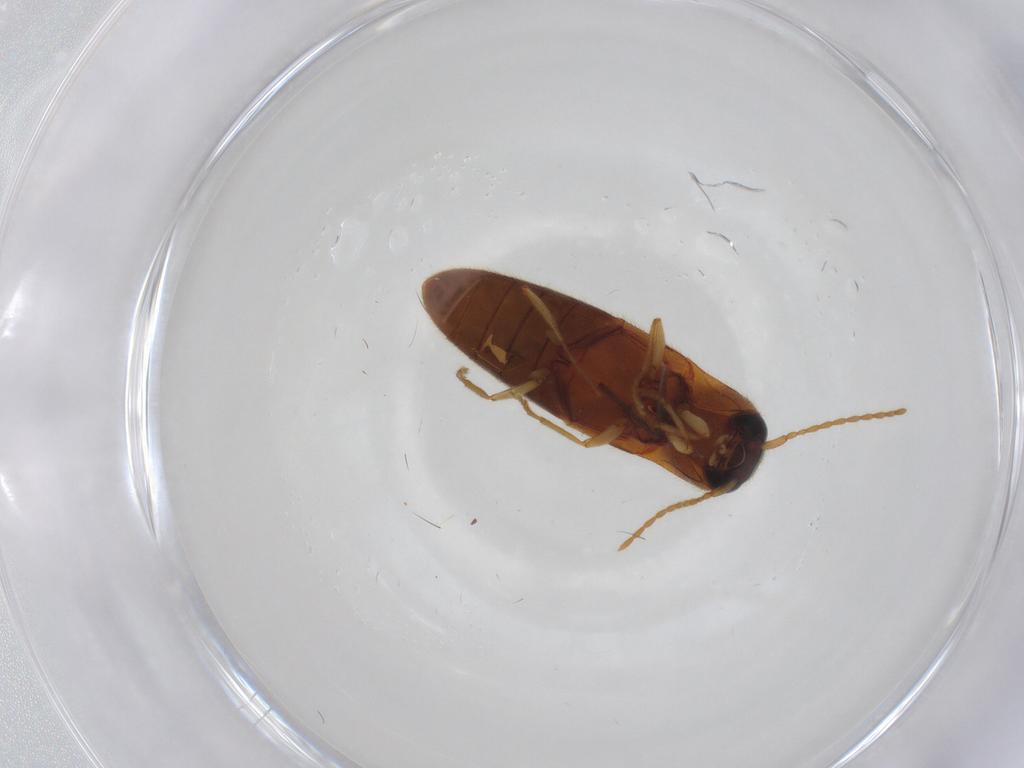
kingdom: Animalia
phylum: Arthropoda
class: Insecta
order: Coleoptera
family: Elateridae
